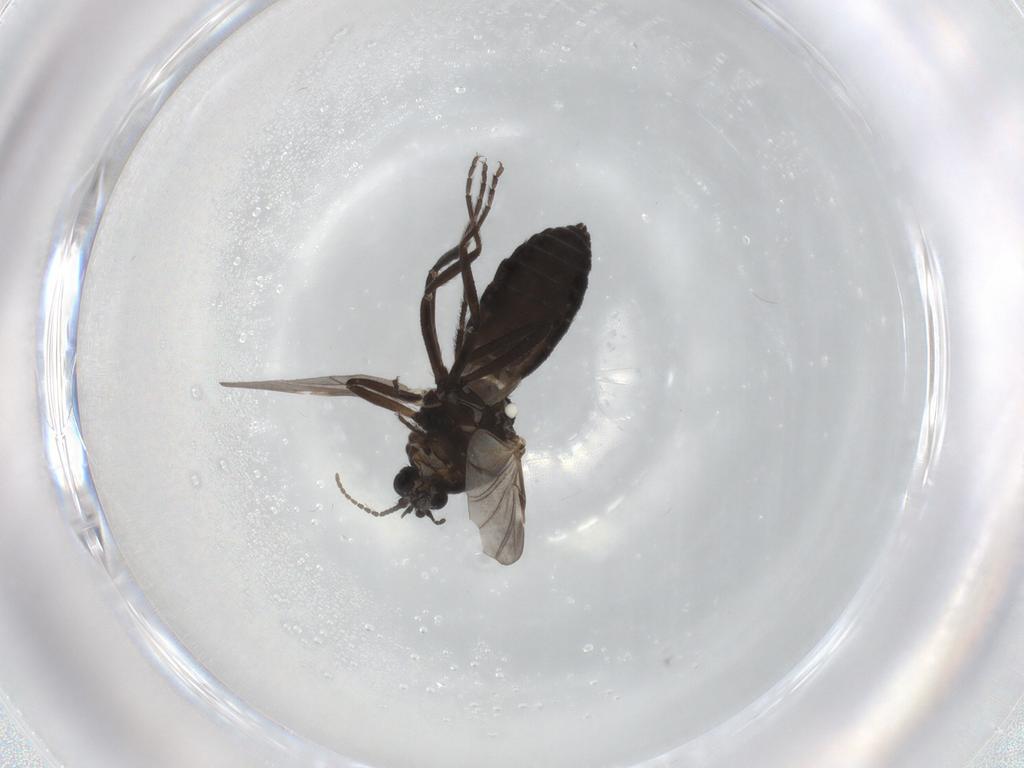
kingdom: Animalia
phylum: Arthropoda
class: Insecta
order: Diptera
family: Ceratopogonidae
